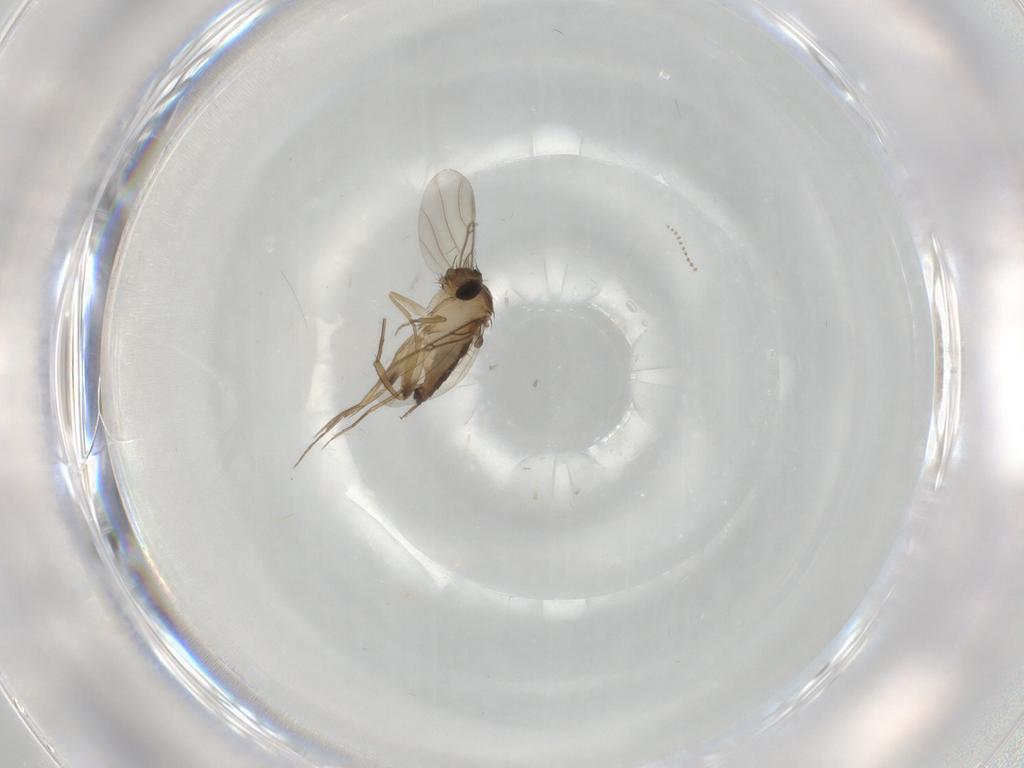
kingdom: Animalia
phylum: Arthropoda
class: Insecta
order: Diptera
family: Phoridae
